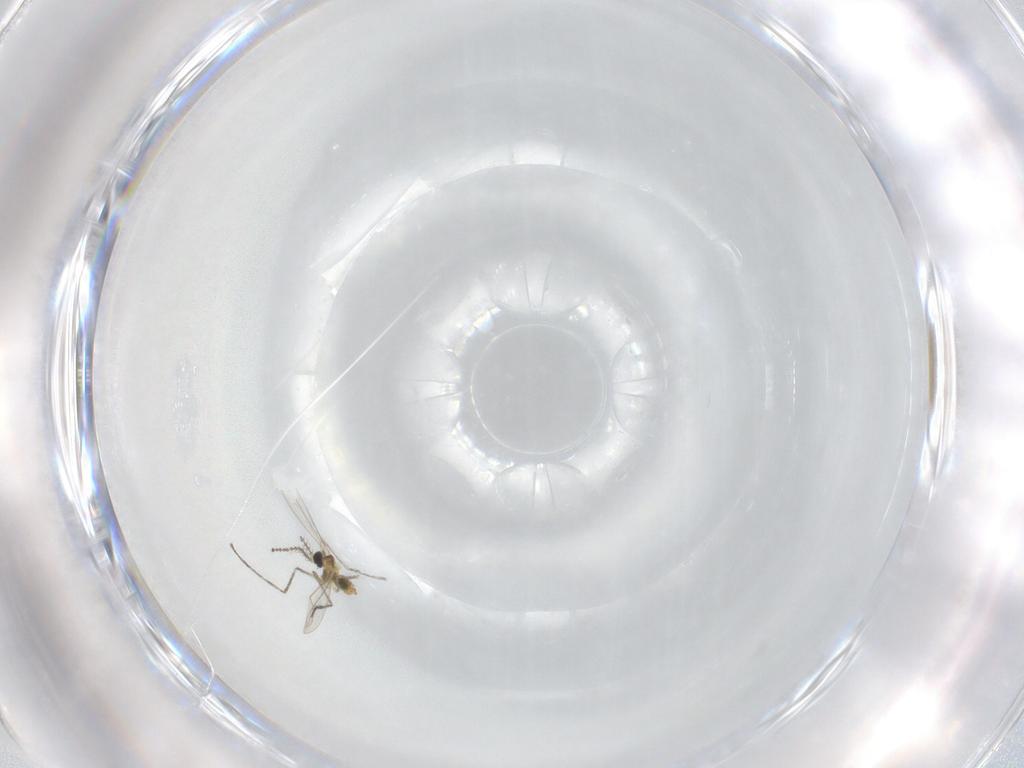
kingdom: Animalia
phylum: Arthropoda
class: Insecta
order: Diptera
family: Cecidomyiidae
